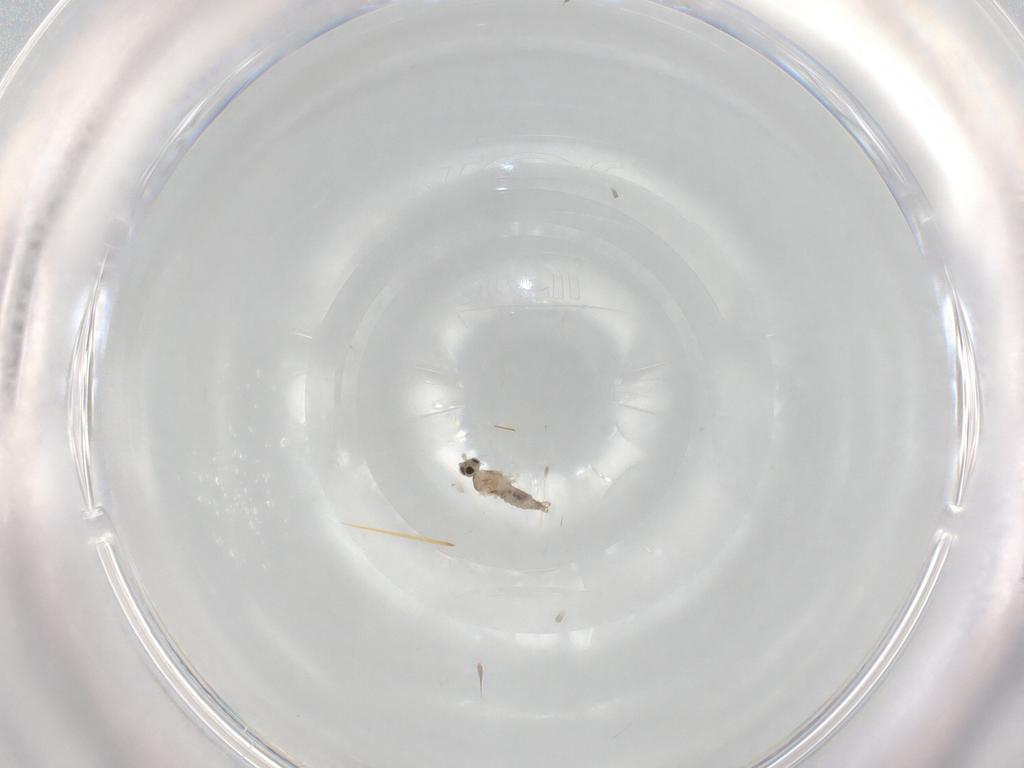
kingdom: Animalia
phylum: Arthropoda
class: Insecta
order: Diptera
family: Cecidomyiidae
